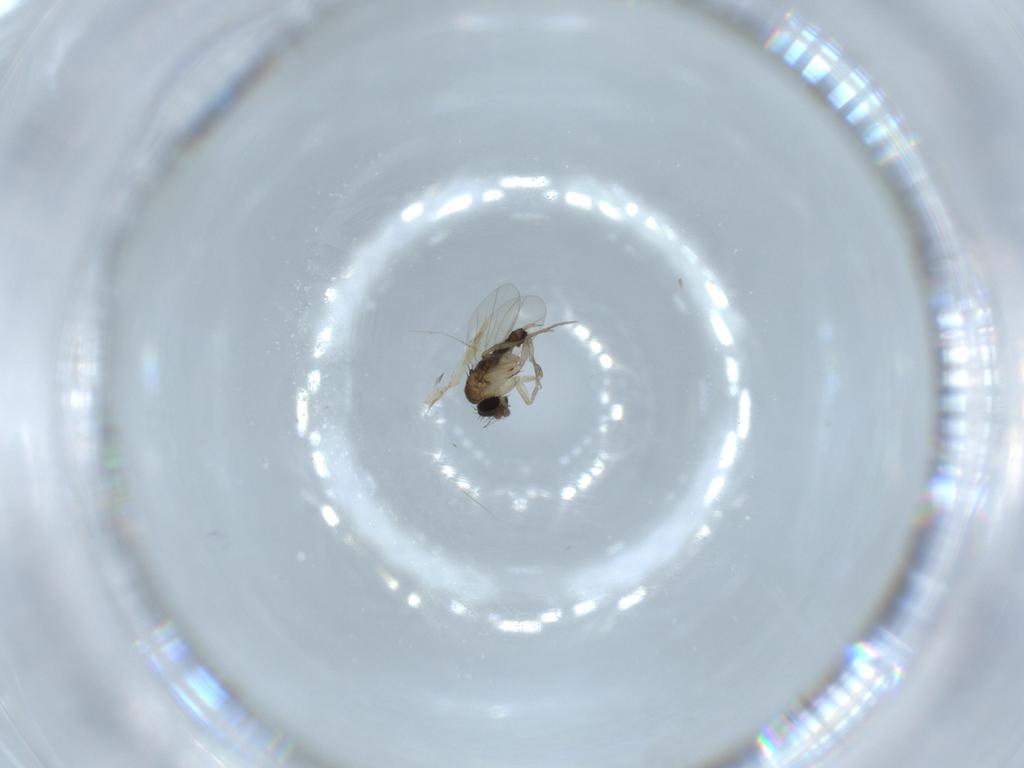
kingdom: Animalia
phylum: Arthropoda
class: Insecta
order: Diptera
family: Phoridae
